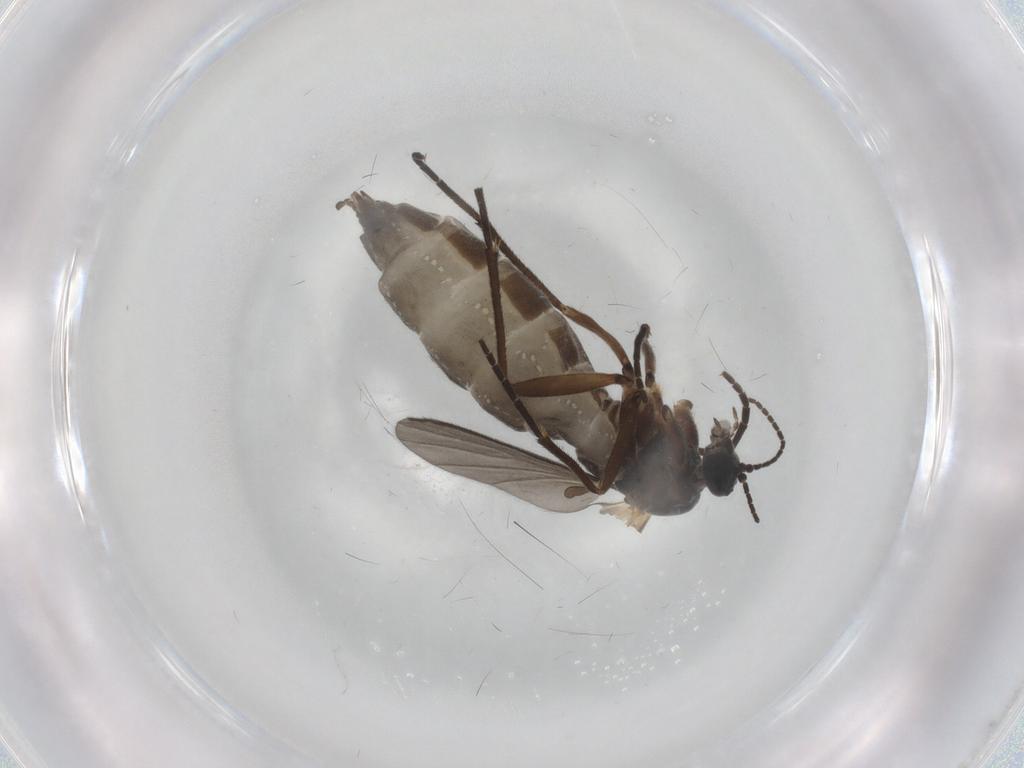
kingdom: Animalia
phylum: Arthropoda
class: Insecta
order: Diptera
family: Sciaridae
